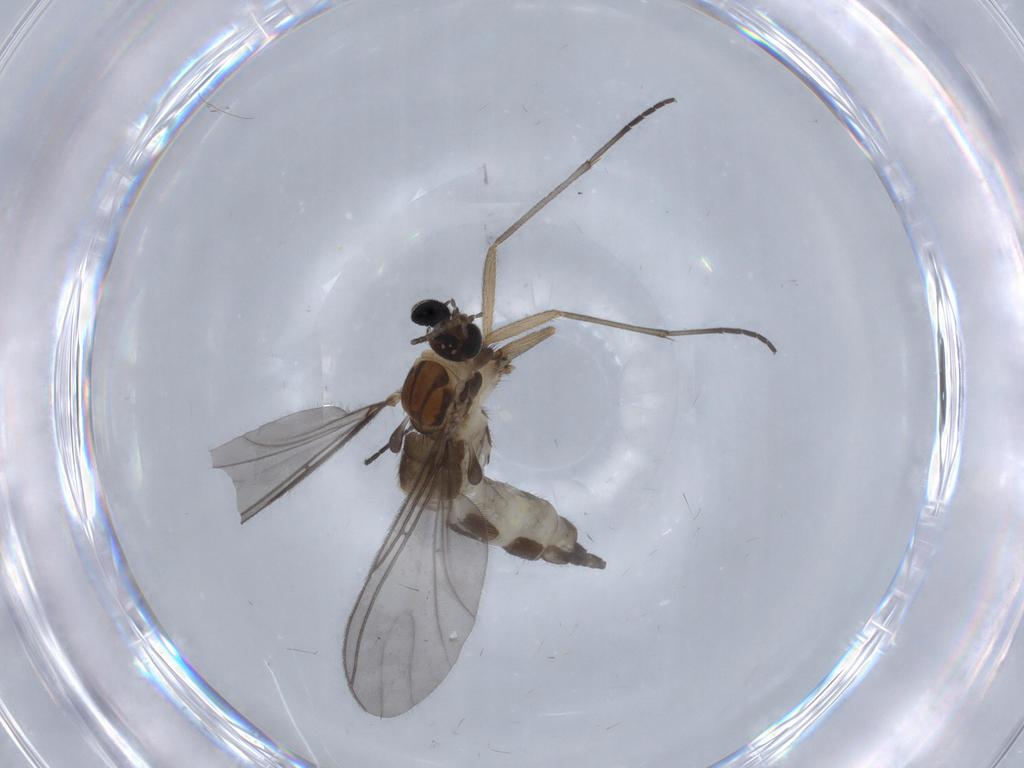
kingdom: Animalia
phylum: Arthropoda
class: Insecta
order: Diptera
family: Sciaridae
